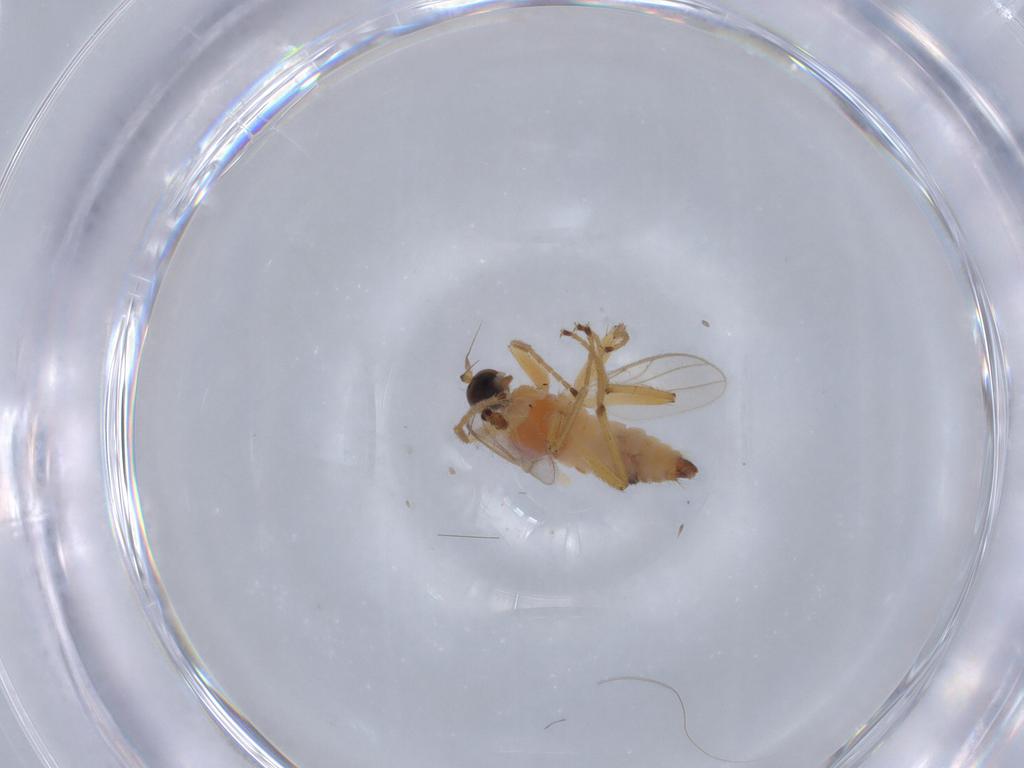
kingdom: Animalia
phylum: Arthropoda
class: Insecta
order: Diptera
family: Hybotidae
